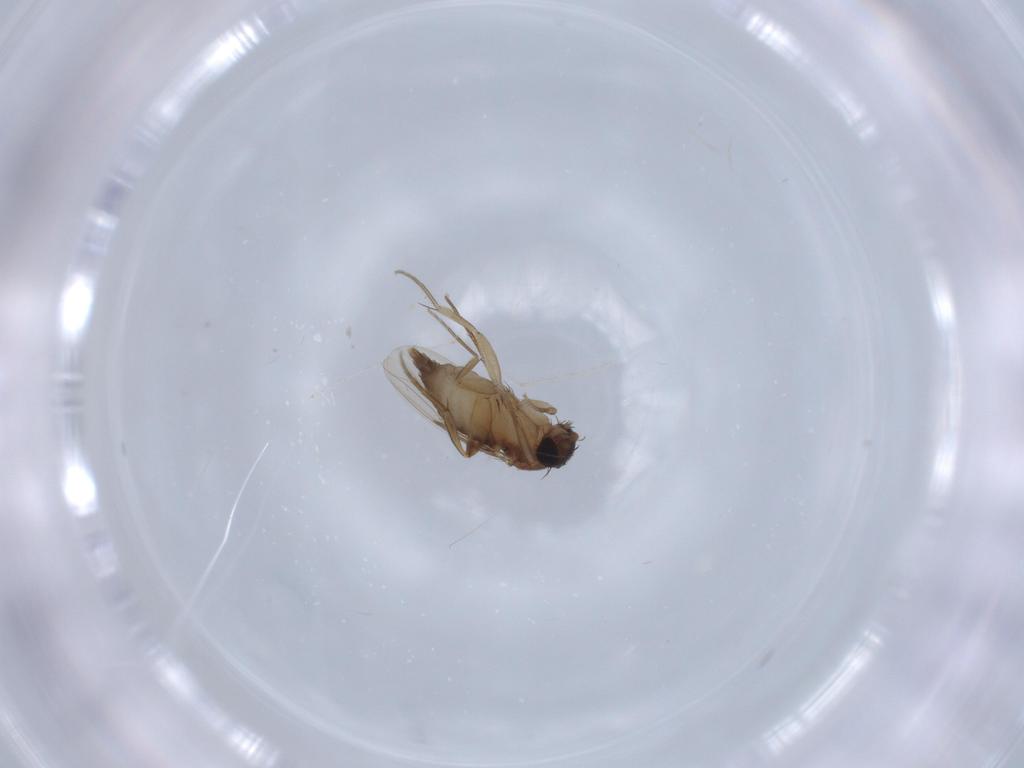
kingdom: Animalia
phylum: Arthropoda
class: Insecta
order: Diptera
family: Phoridae
